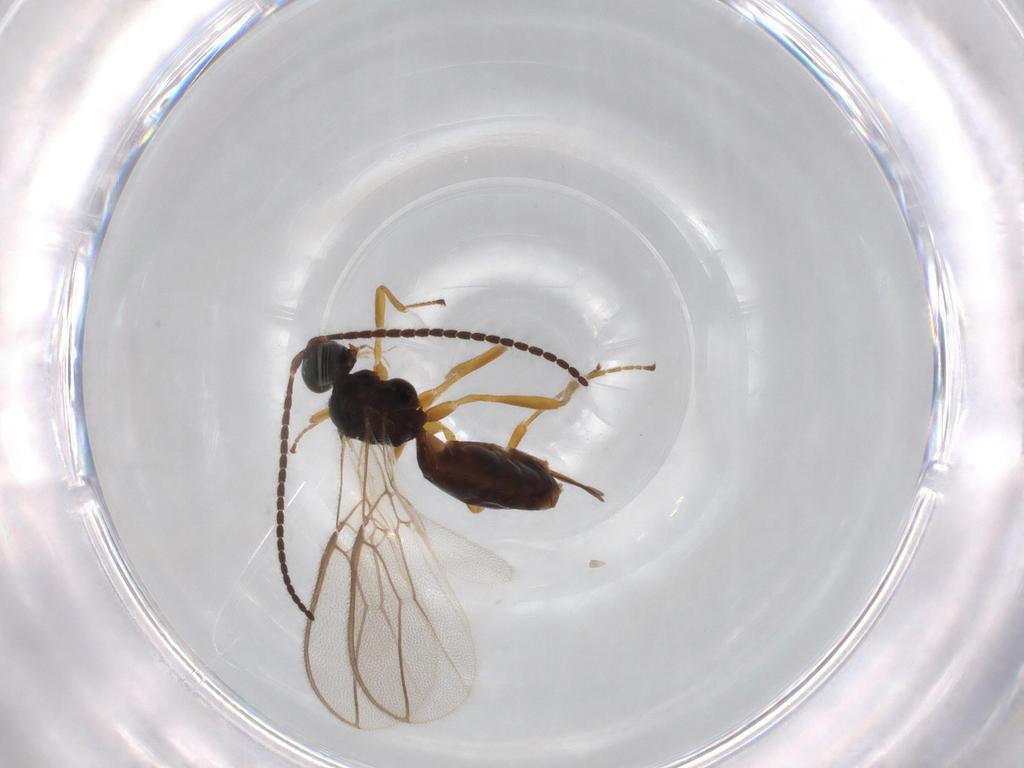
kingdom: Animalia
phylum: Arthropoda
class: Insecta
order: Hymenoptera
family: Braconidae
